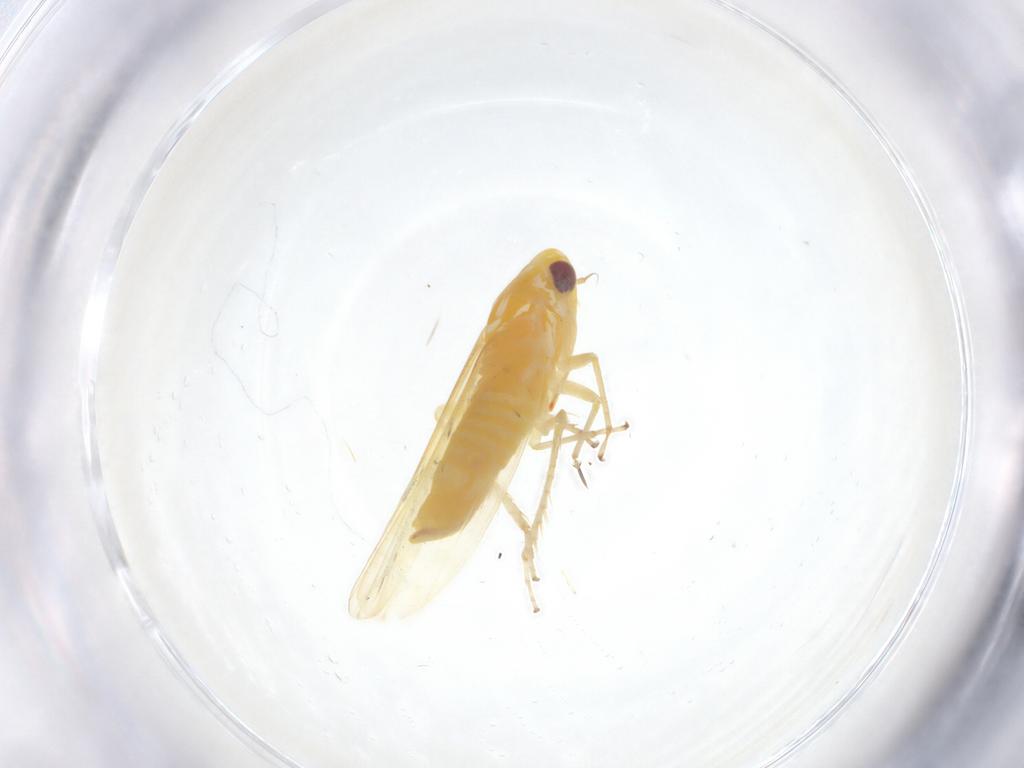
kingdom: Animalia
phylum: Arthropoda
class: Insecta
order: Hemiptera
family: Cicadellidae
